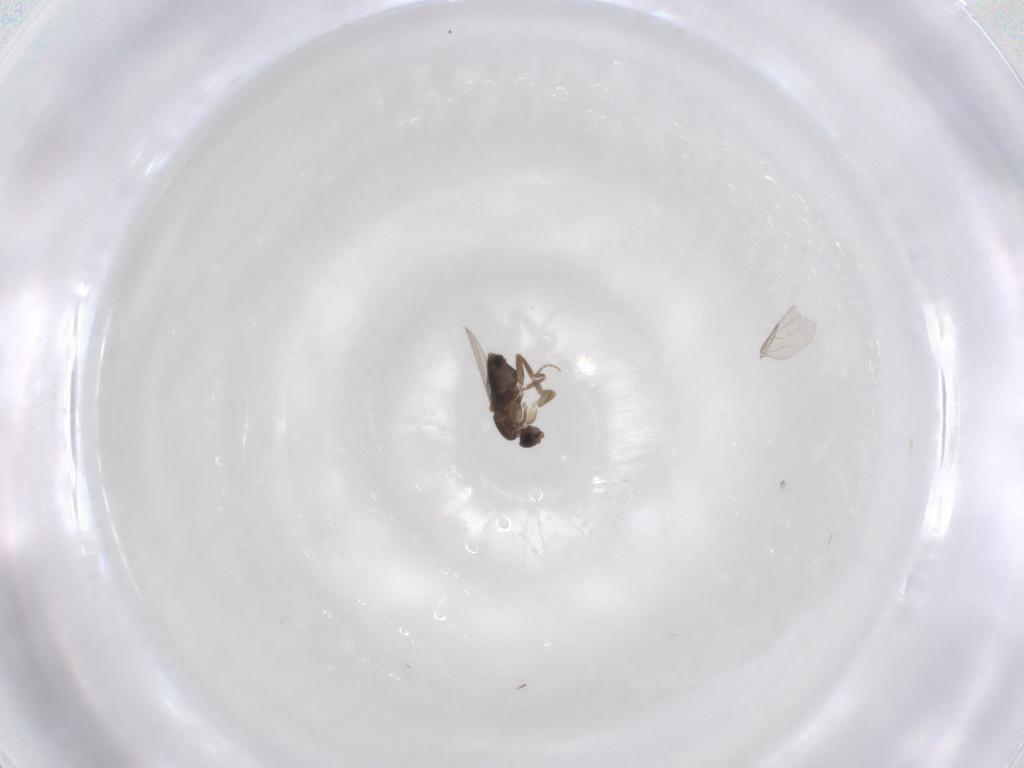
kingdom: Animalia
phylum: Arthropoda
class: Insecta
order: Diptera
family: Phoridae
